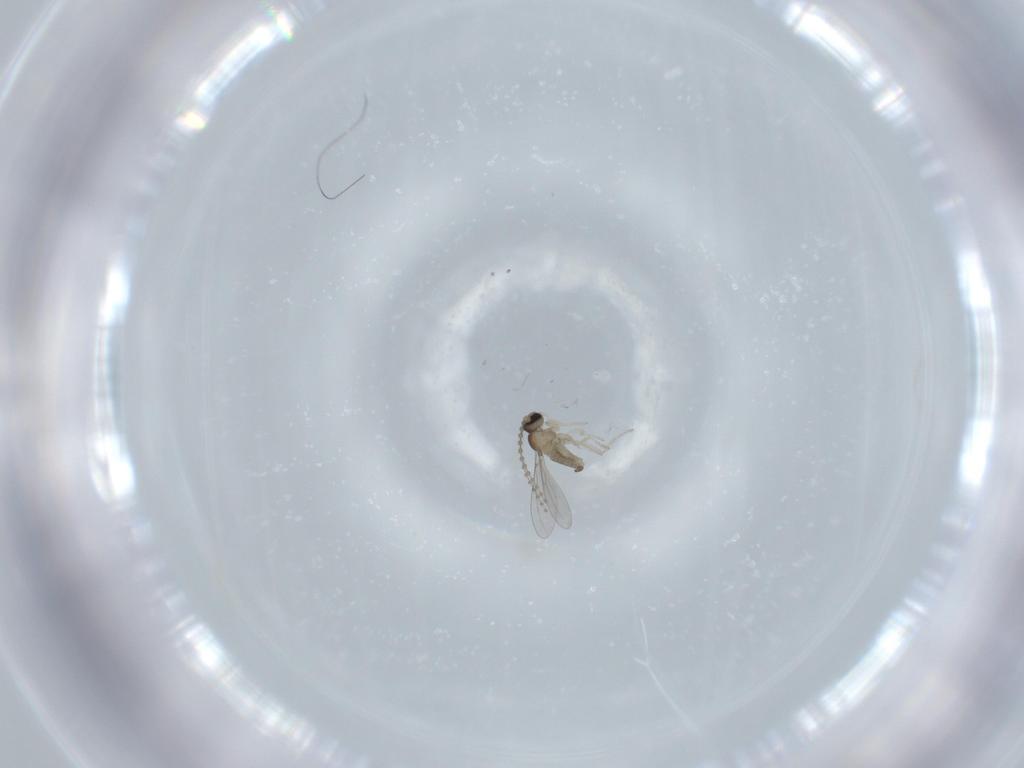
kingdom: Animalia
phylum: Arthropoda
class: Insecta
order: Diptera
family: Cecidomyiidae
